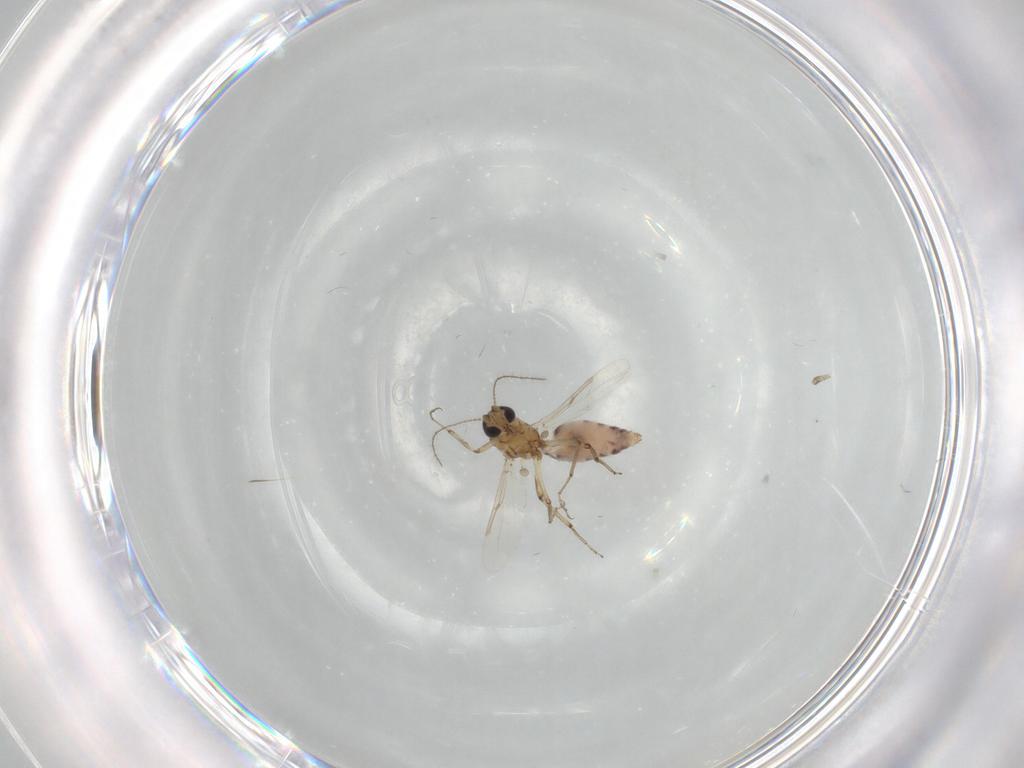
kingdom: Animalia
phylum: Arthropoda
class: Insecta
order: Diptera
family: Ceratopogonidae
